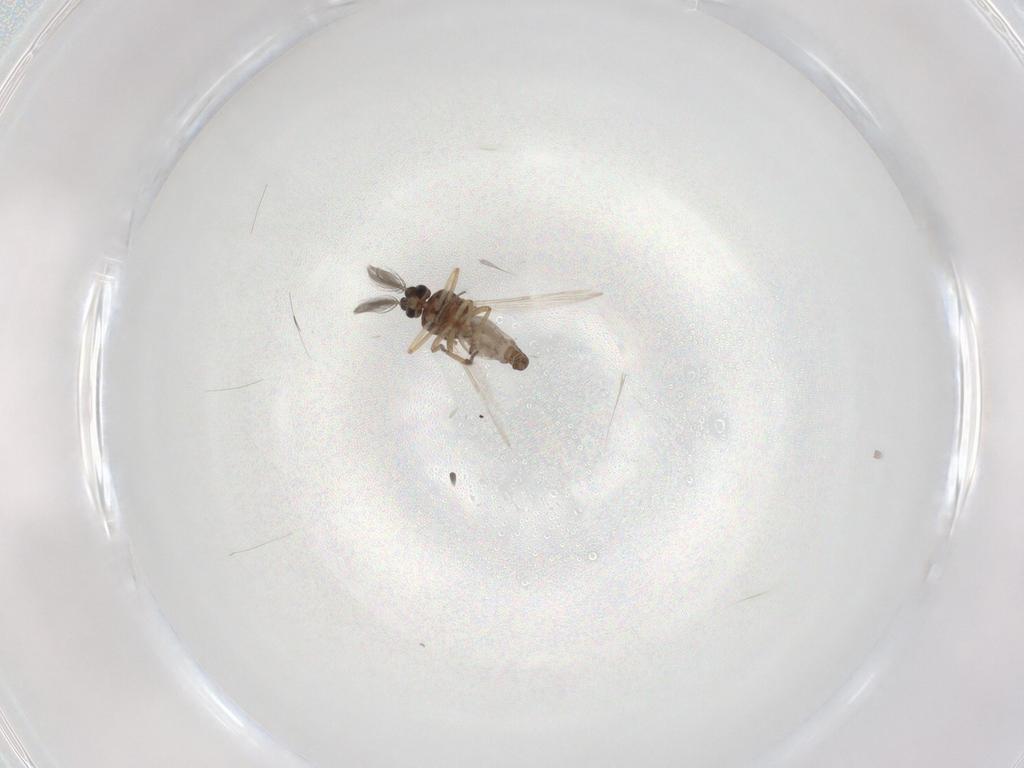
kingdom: Animalia
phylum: Arthropoda
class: Insecta
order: Diptera
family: Ceratopogonidae
